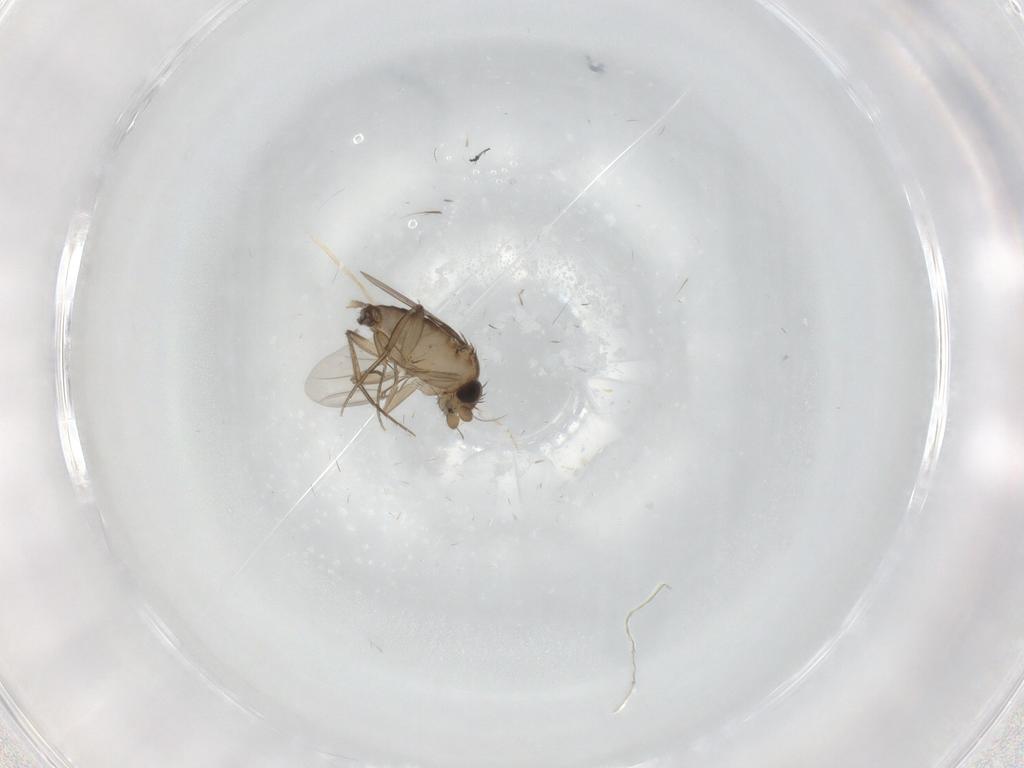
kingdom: Animalia
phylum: Arthropoda
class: Insecta
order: Diptera
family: Phoridae
